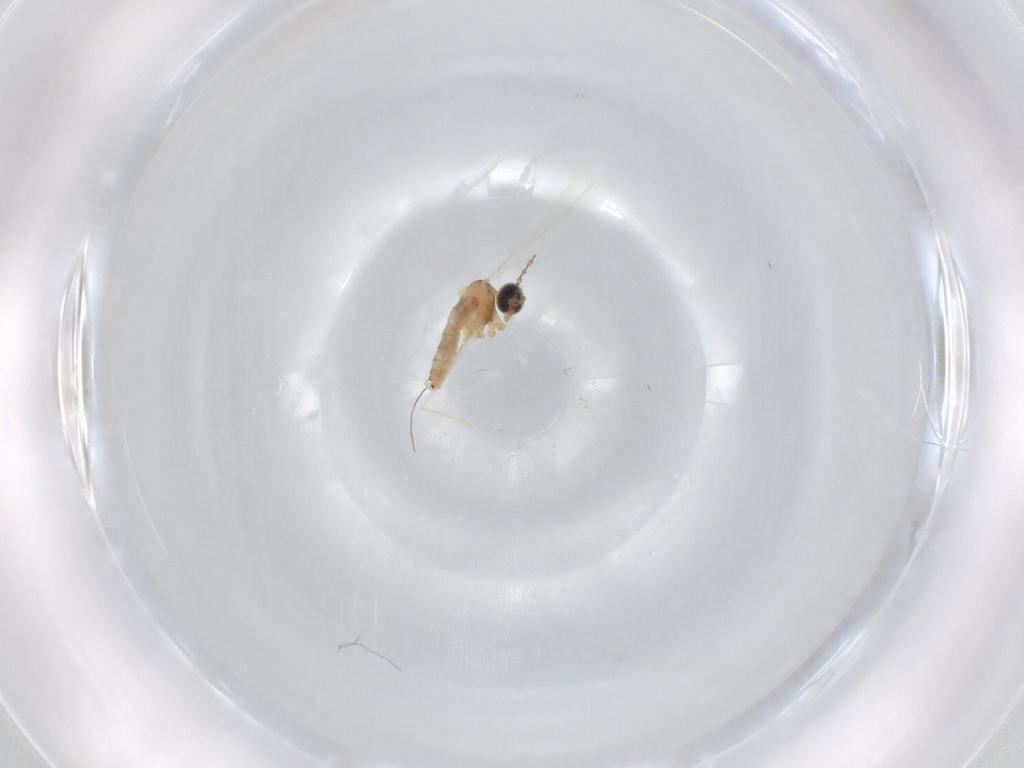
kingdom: Animalia
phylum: Arthropoda
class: Insecta
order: Diptera
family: Cecidomyiidae
